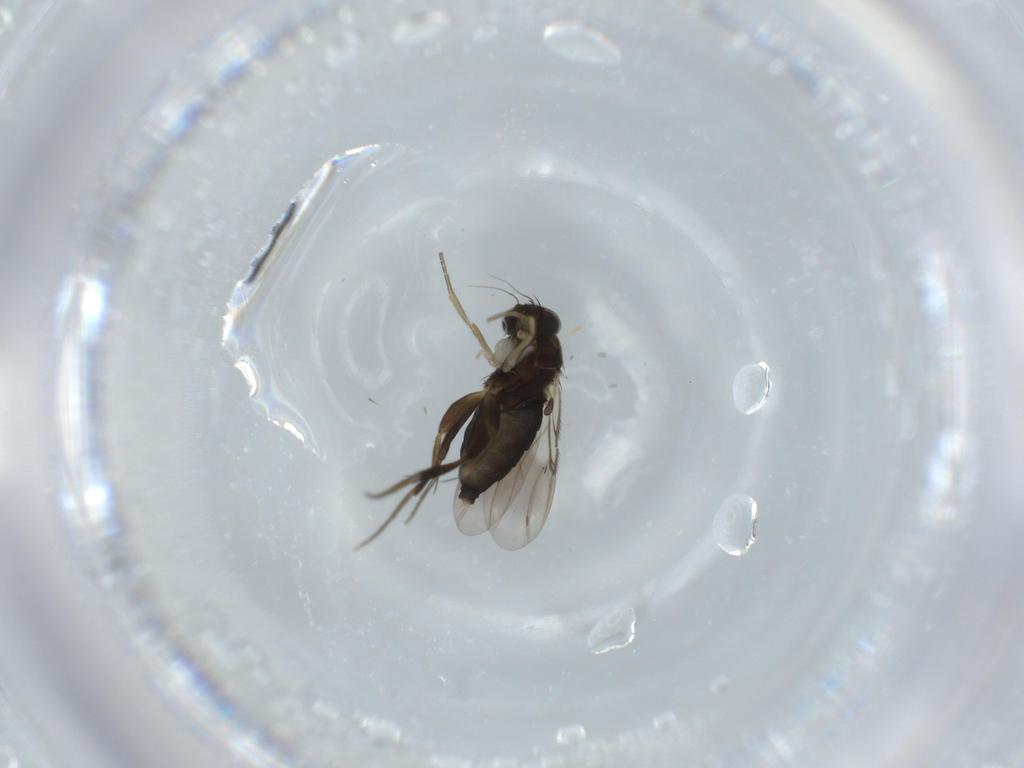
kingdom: Animalia
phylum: Arthropoda
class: Insecta
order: Diptera
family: Phoridae
